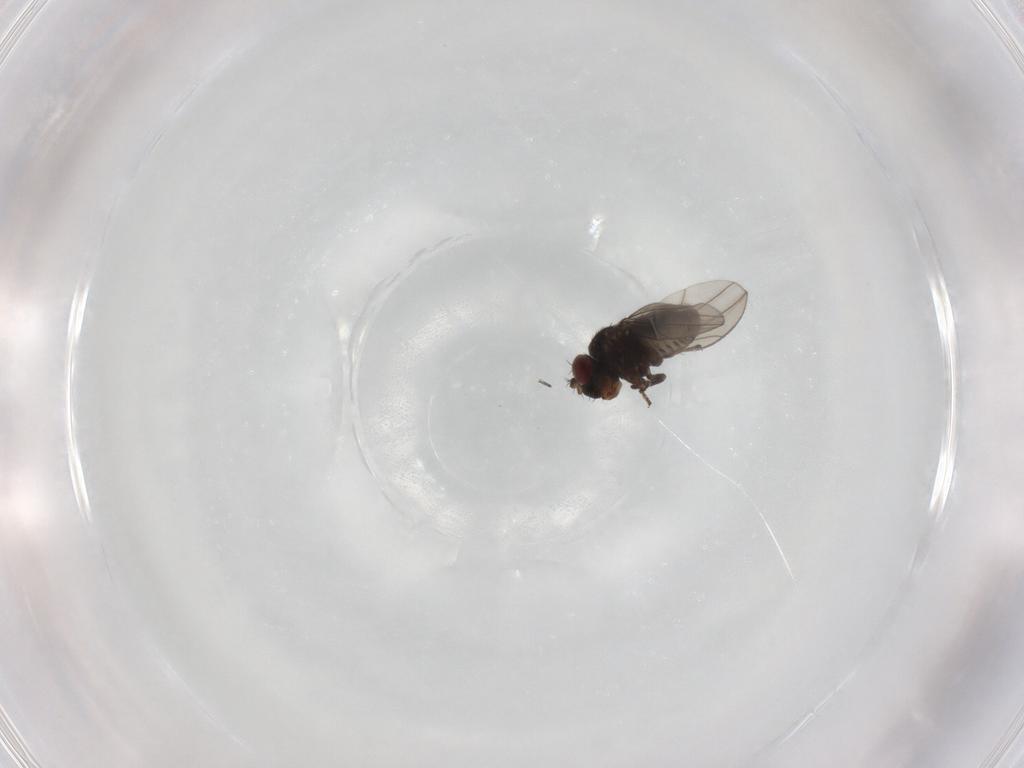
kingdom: Animalia
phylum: Arthropoda
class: Insecta
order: Diptera
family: Ephydridae
